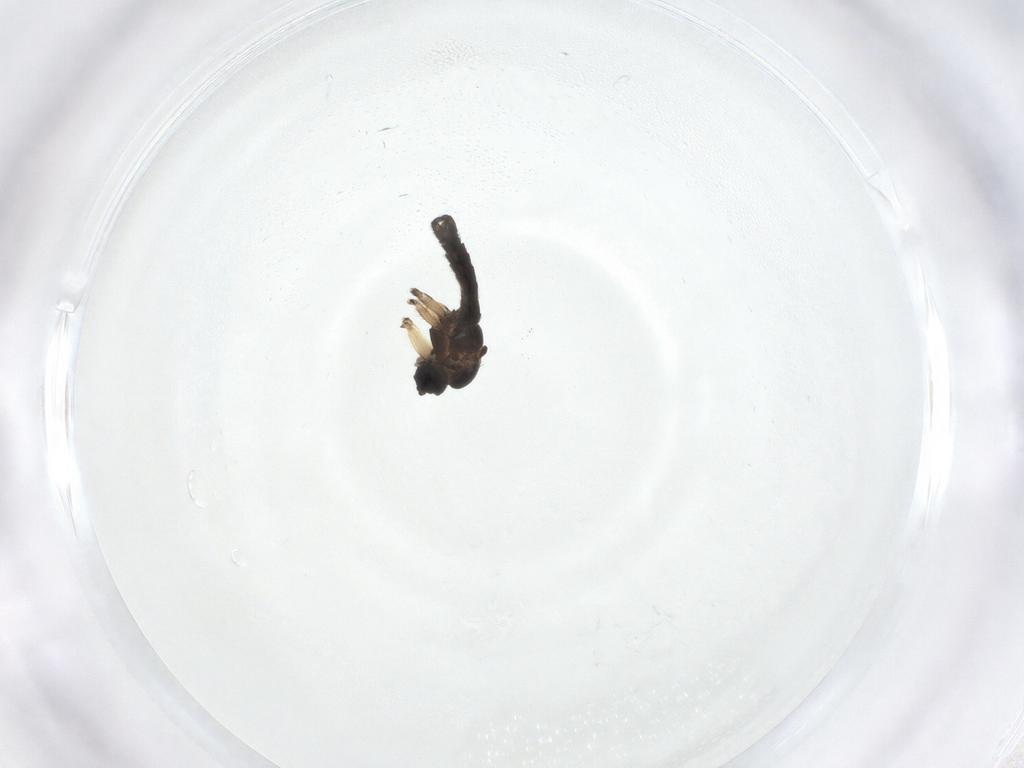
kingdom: Animalia
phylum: Arthropoda
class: Insecta
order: Diptera
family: Sciaridae
